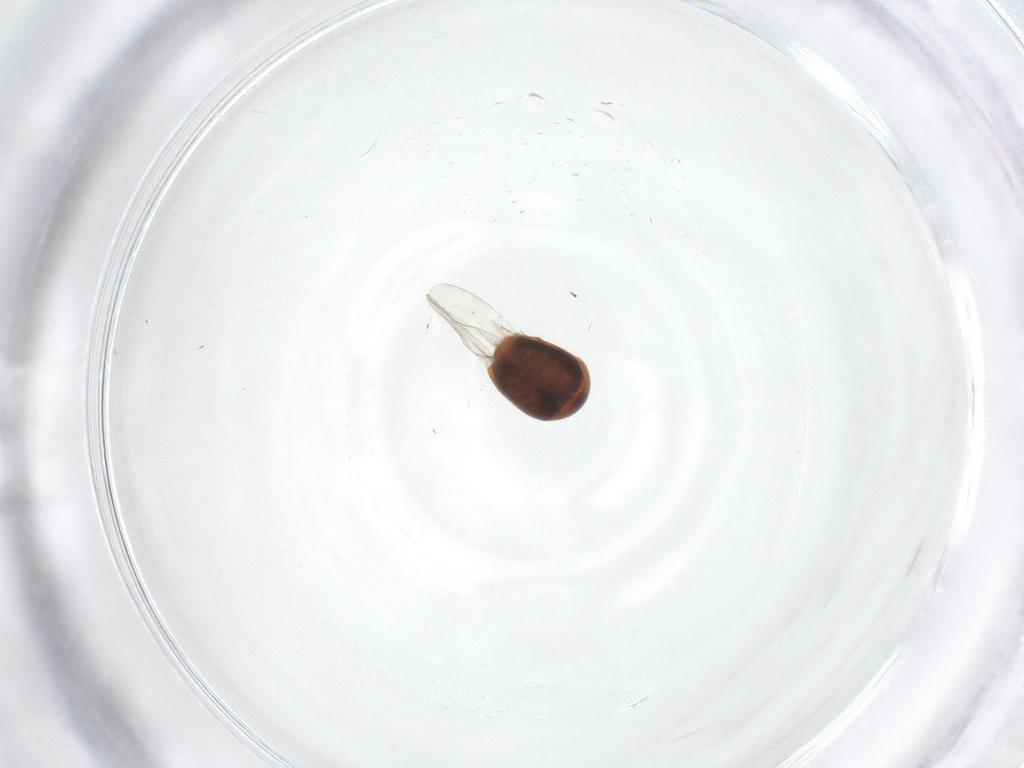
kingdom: Animalia
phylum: Arthropoda
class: Insecta
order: Coleoptera
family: Corylophidae
